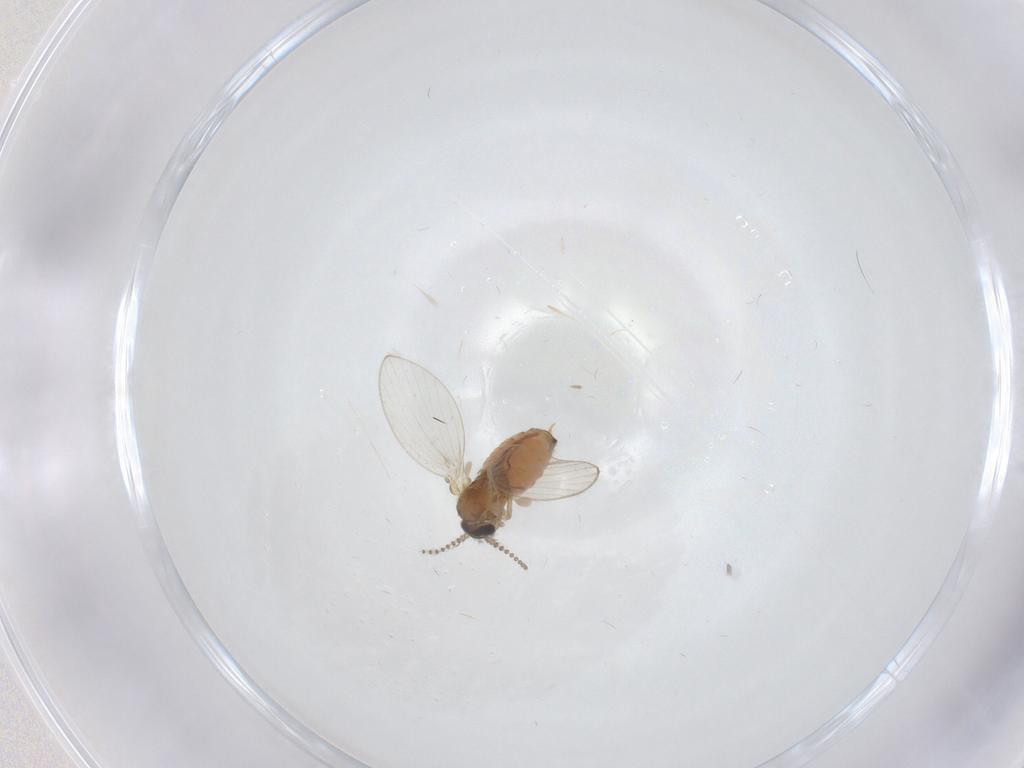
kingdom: Animalia
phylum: Arthropoda
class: Insecta
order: Diptera
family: Psychodidae
